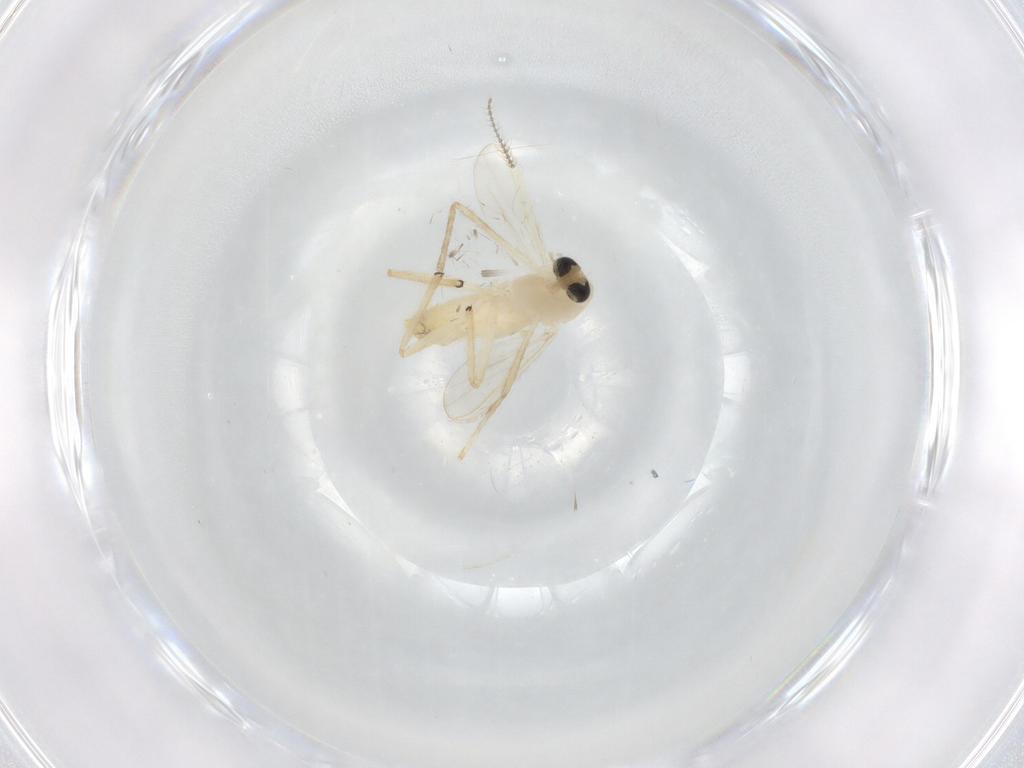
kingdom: Animalia
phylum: Arthropoda
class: Insecta
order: Diptera
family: Chironomidae
